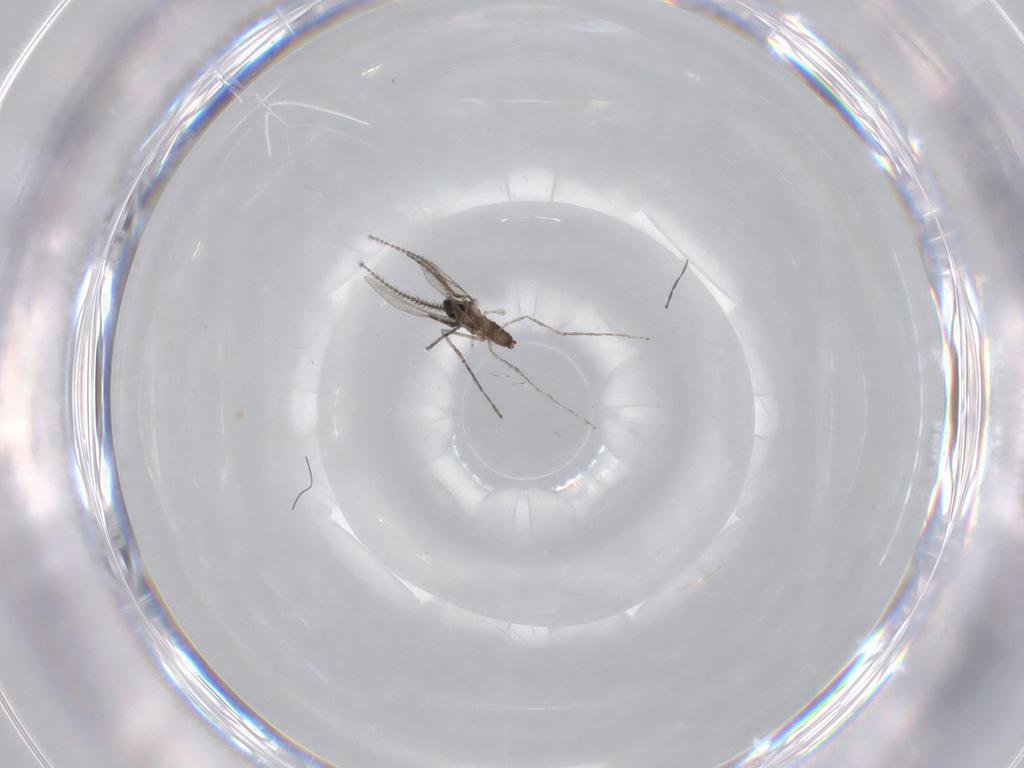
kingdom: Animalia
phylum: Arthropoda
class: Insecta
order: Diptera
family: Cecidomyiidae
